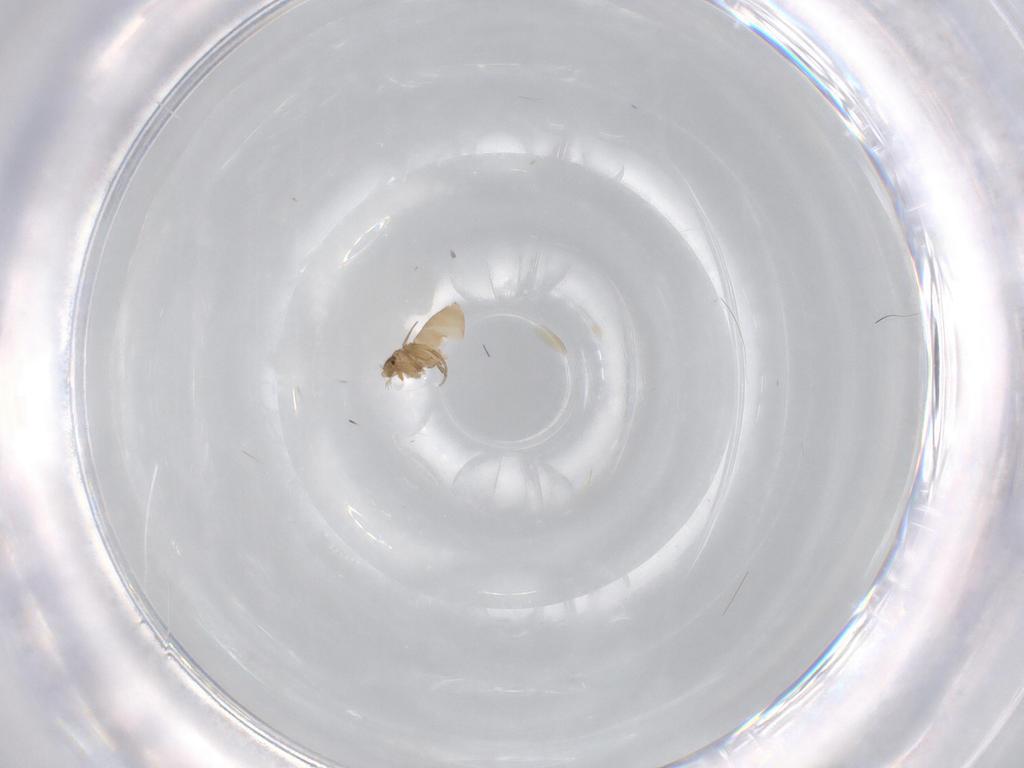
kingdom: Animalia
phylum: Arthropoda
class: Insecta
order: Diptera
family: Phoridae
